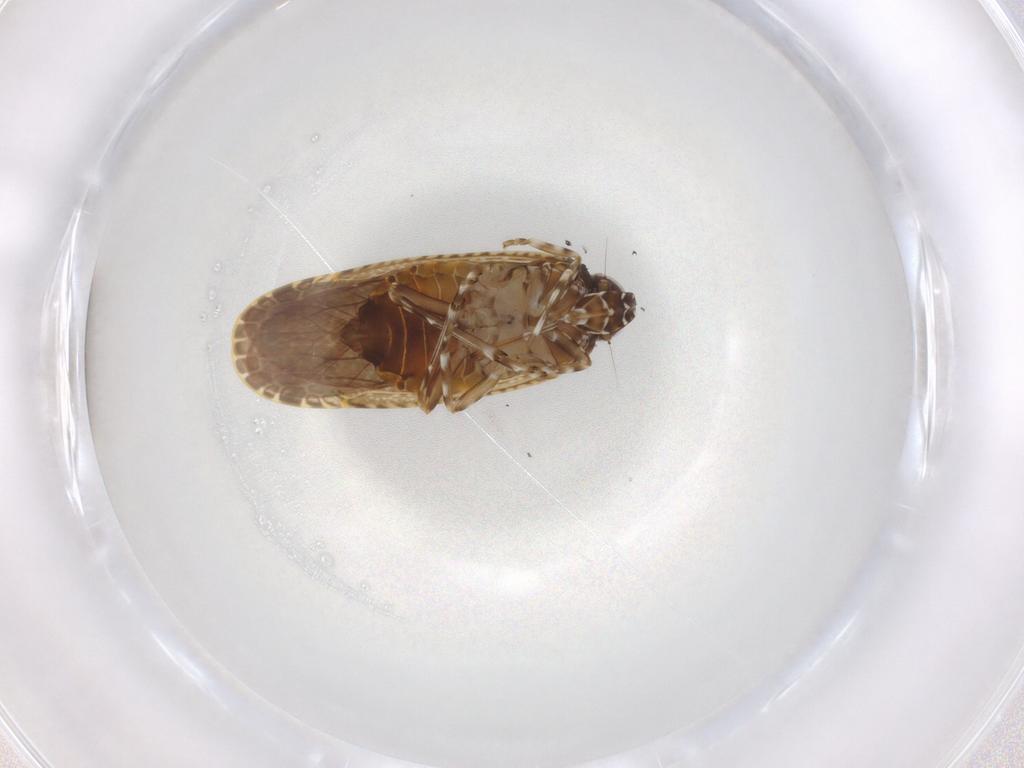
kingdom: Animalia
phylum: Arthropoda
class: Insecta
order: Hemiptera
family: Achilidae
